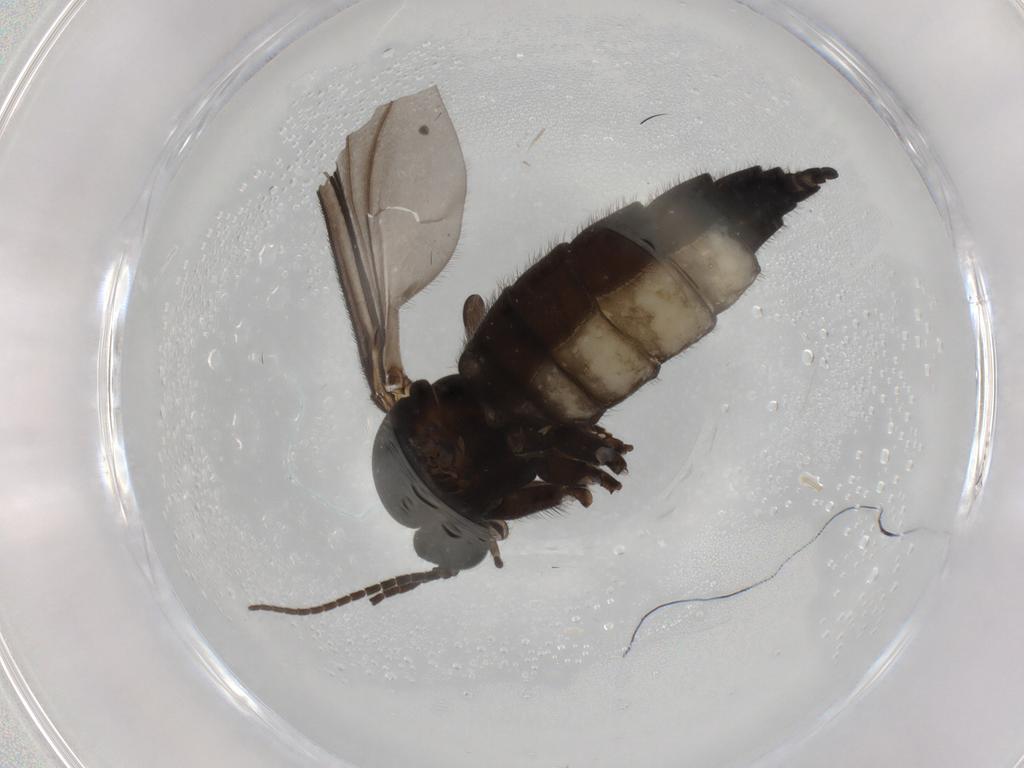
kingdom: Animalia
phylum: Arthropoda
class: Insecta
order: Diptera
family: Sciaridae
